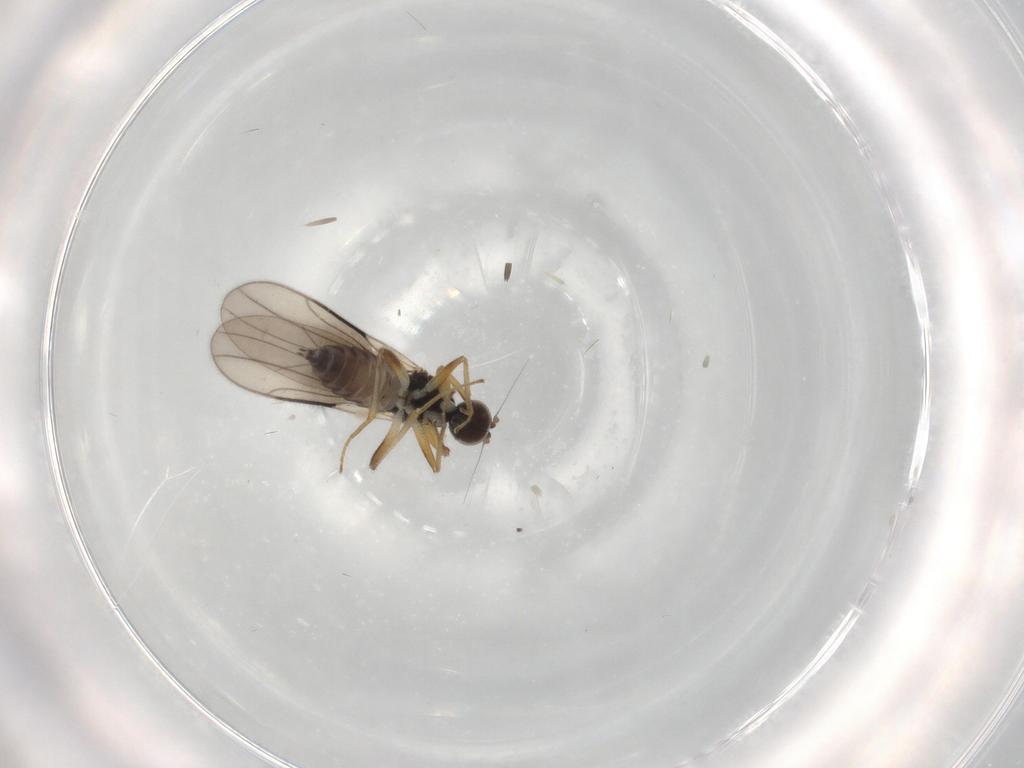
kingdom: Animalia
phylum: Arthropoda
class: Insecta
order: Diptera
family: Hybotidae
